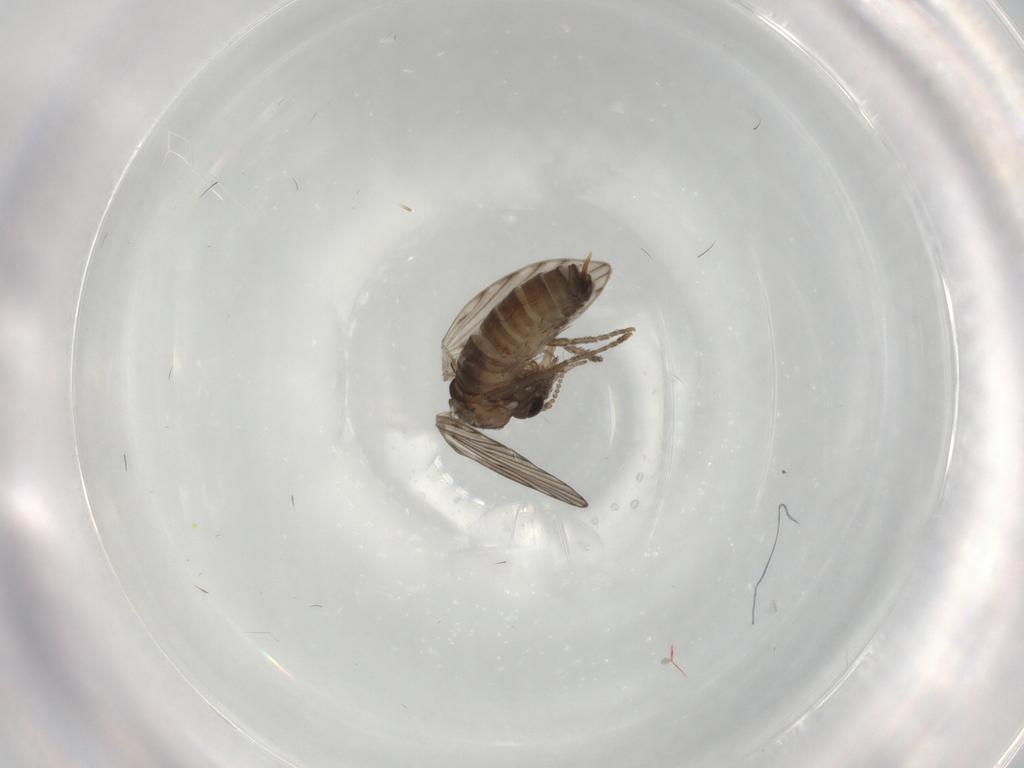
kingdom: Animalia
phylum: Arthropoda
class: Insecta
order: Diptera
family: Psychodidae
